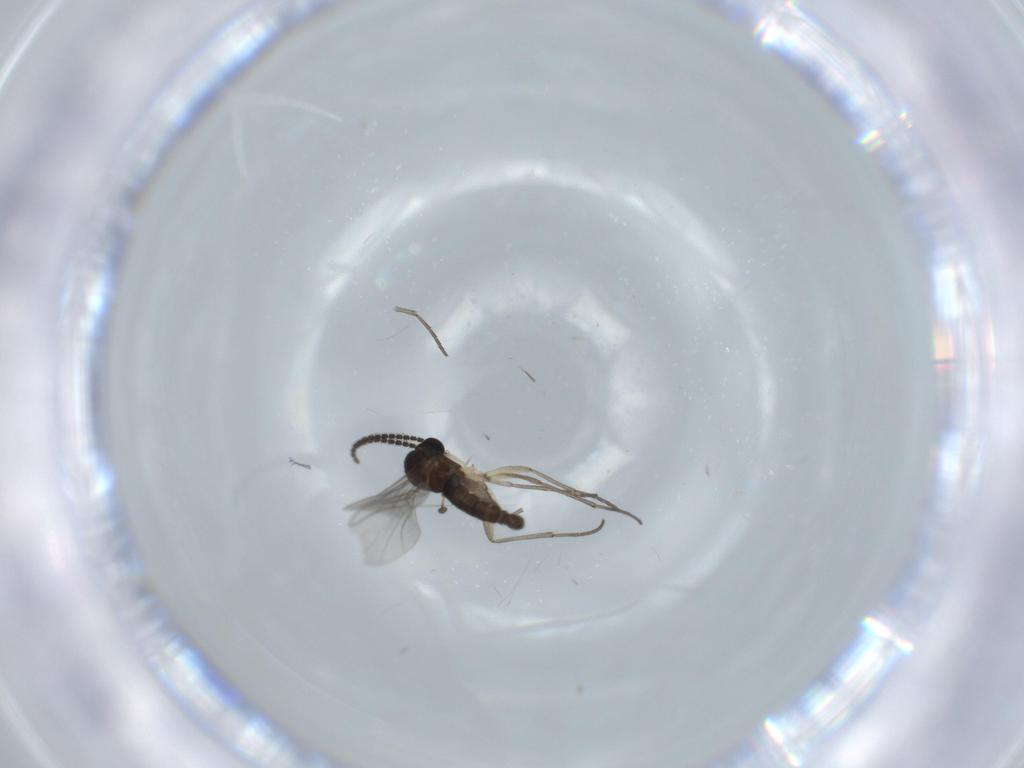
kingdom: Animalia
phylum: Arthropoda
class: Insecta
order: Diptera
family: Sciaridae
